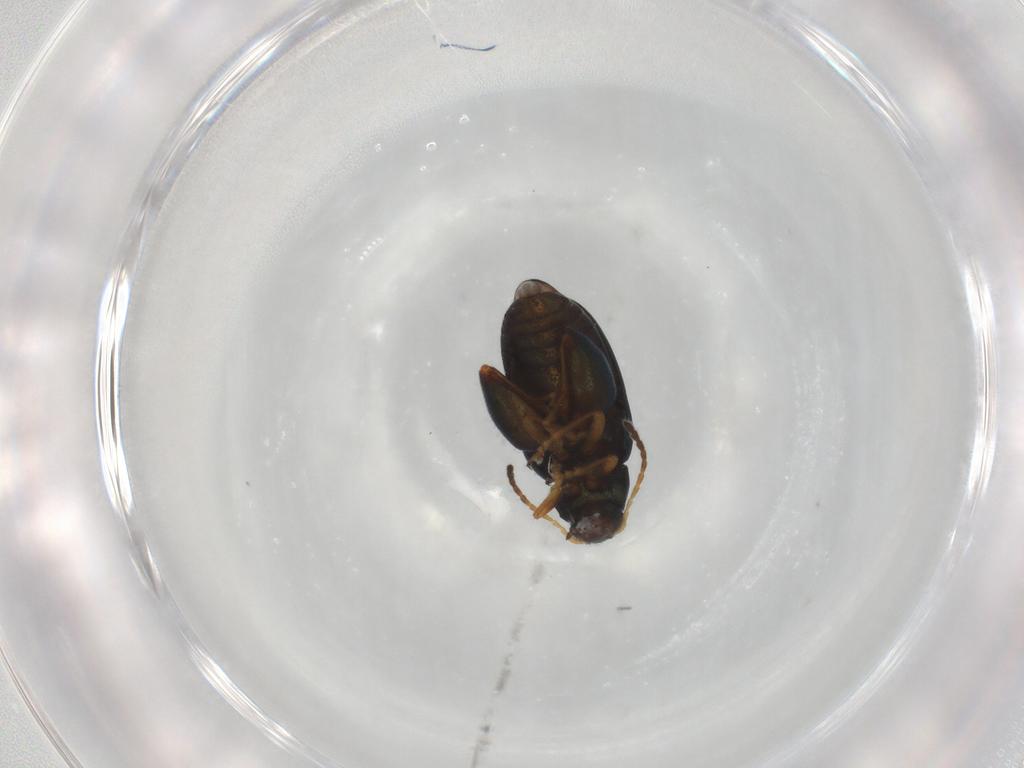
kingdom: Animalia
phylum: Arthropoda
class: Insecta
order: Coleoptera
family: Chrysomelidae
